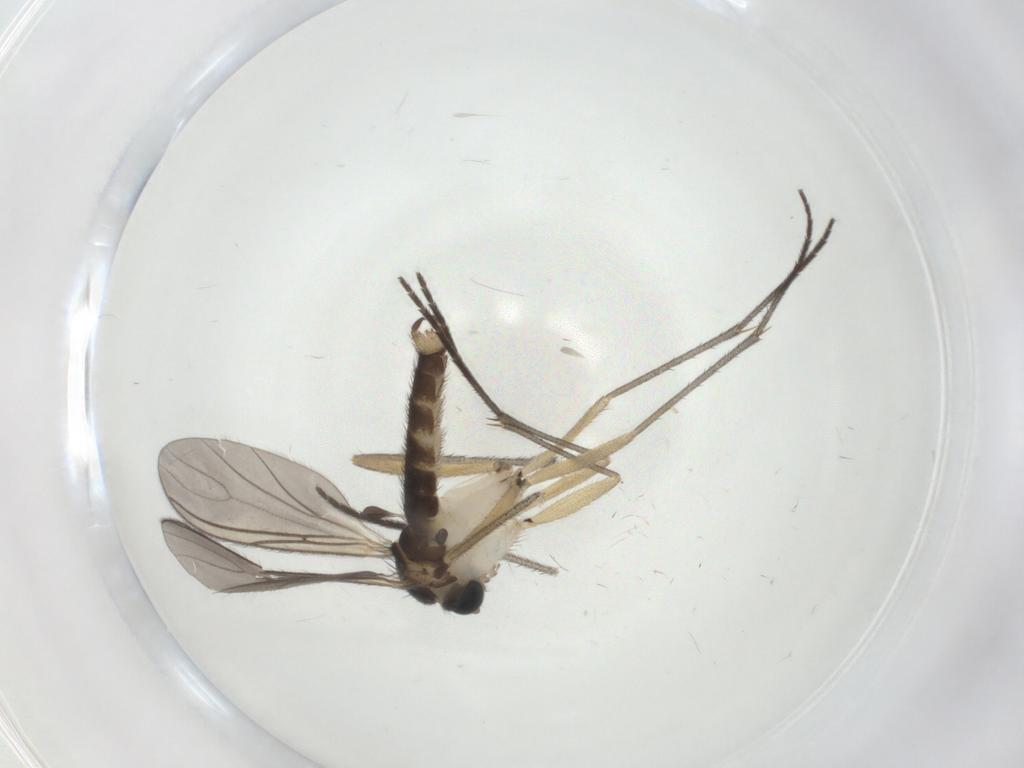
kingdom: Animalia
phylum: Arthropoda
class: Insecta
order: Diptera
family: Sciaridae
